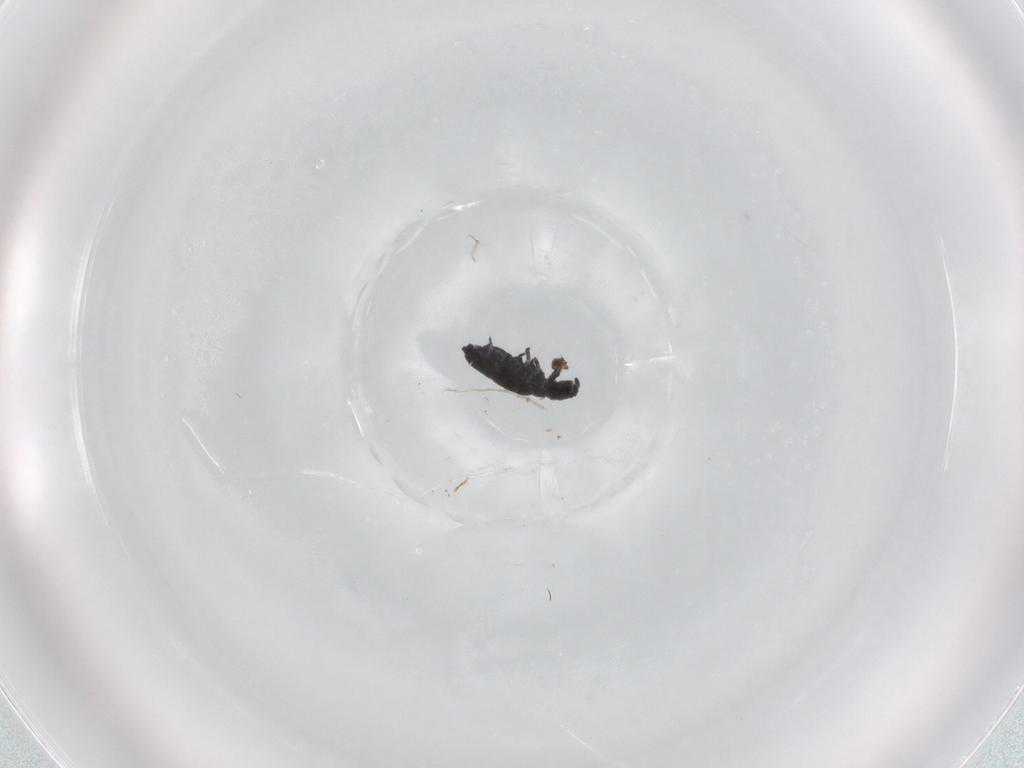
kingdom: Animalia
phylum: Arthropoda
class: Collembola
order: Poduromorpha
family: Hypogastruridae
